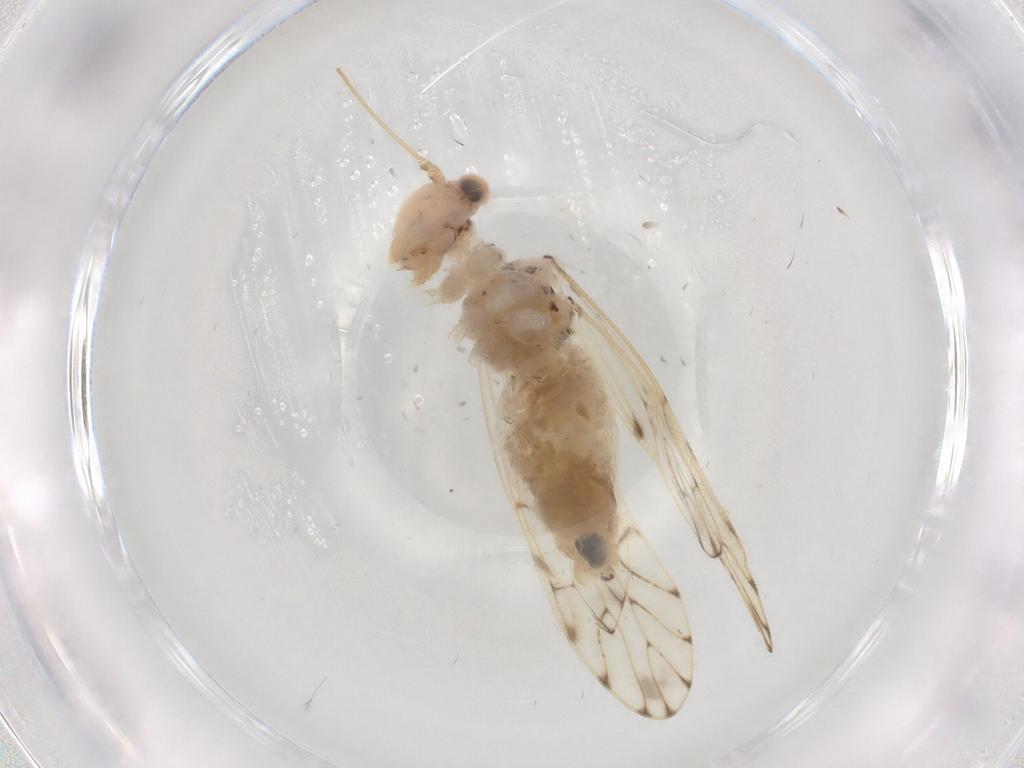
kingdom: Animalia
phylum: Arthropoda
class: Insecta
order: Psocodea
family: Epipsocidae
